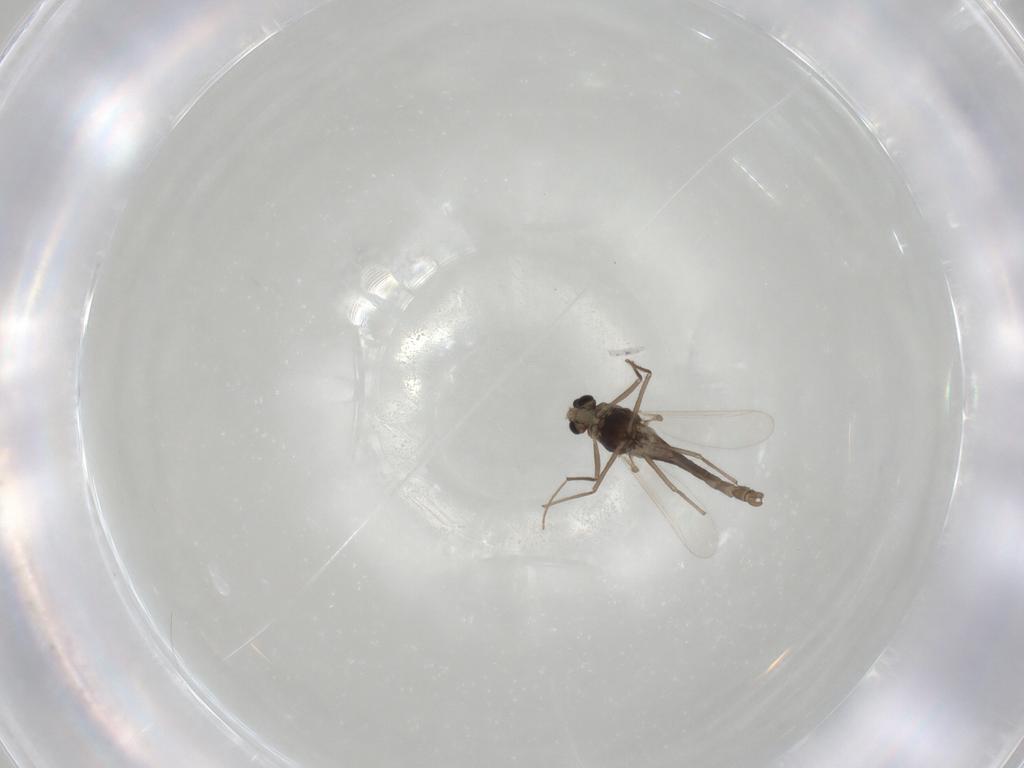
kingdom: Animalia
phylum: Arthropoda
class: Insecta
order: Diptera
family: Chironomidae
